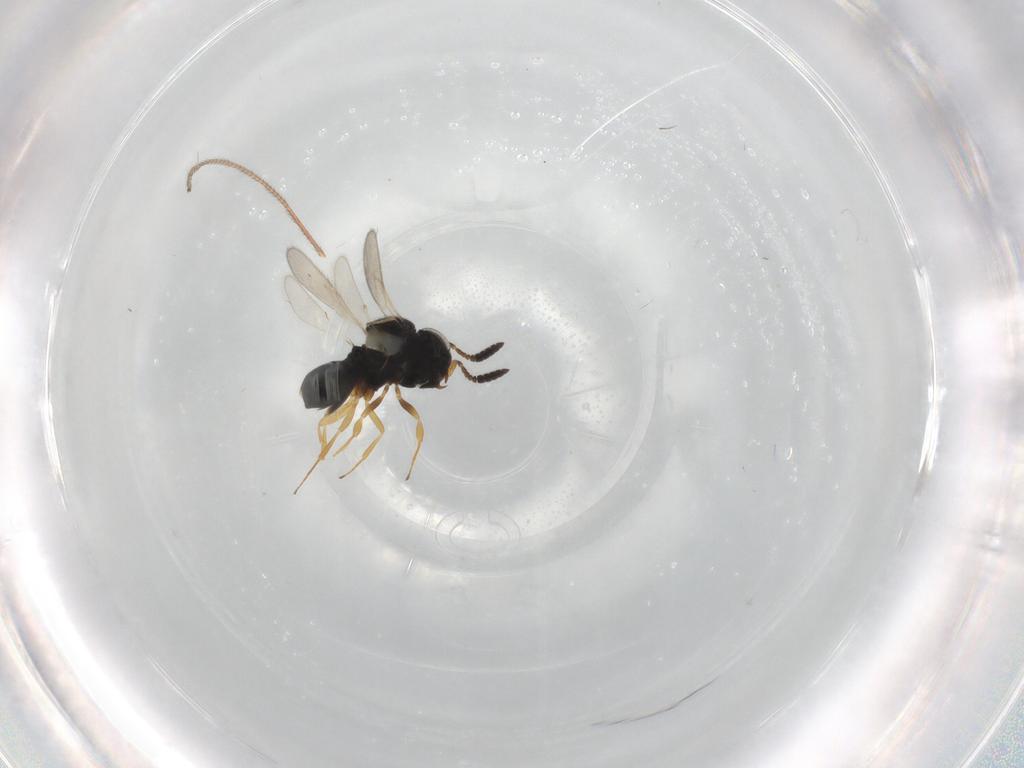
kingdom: Animalia
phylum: Arthropoda
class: Insecta
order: Hymenoptera
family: Scelionidae
